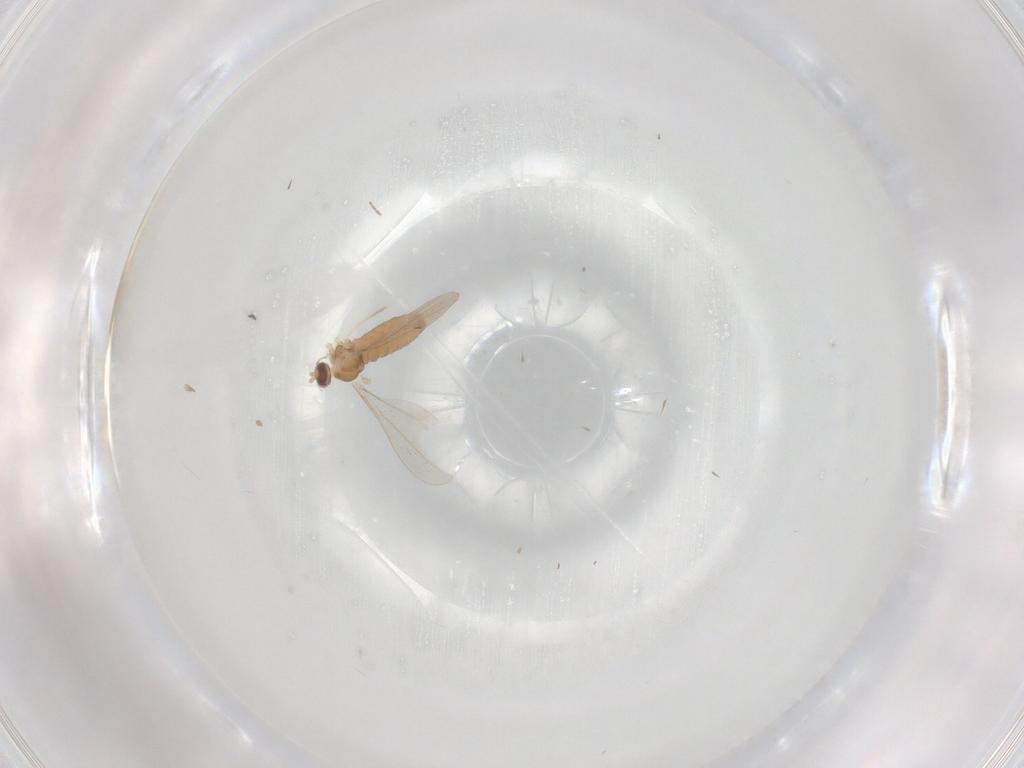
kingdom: Animalia
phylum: Arthropoda
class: Insecta
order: Diptera
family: Cecidomyiidae
